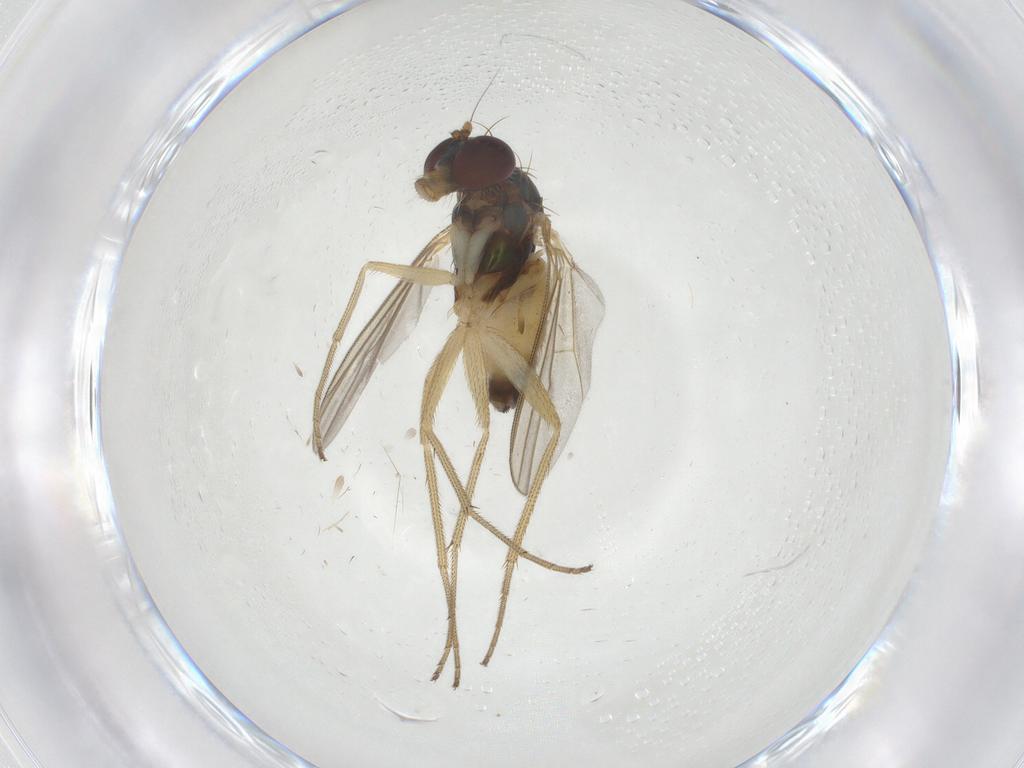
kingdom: Animalia
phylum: Arthropoda
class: Insecta
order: Diptera
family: Dolichopodidae
